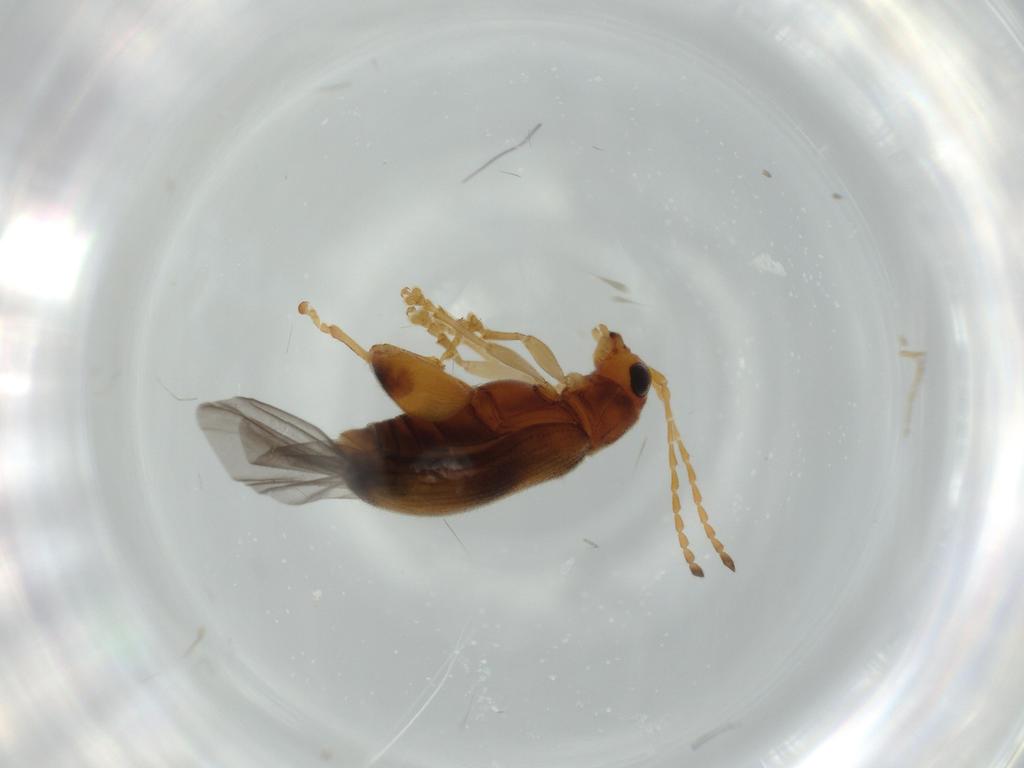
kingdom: Animalia
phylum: Arthropoda
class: Insecta
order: Coleoptera
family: Chrysomelidae
